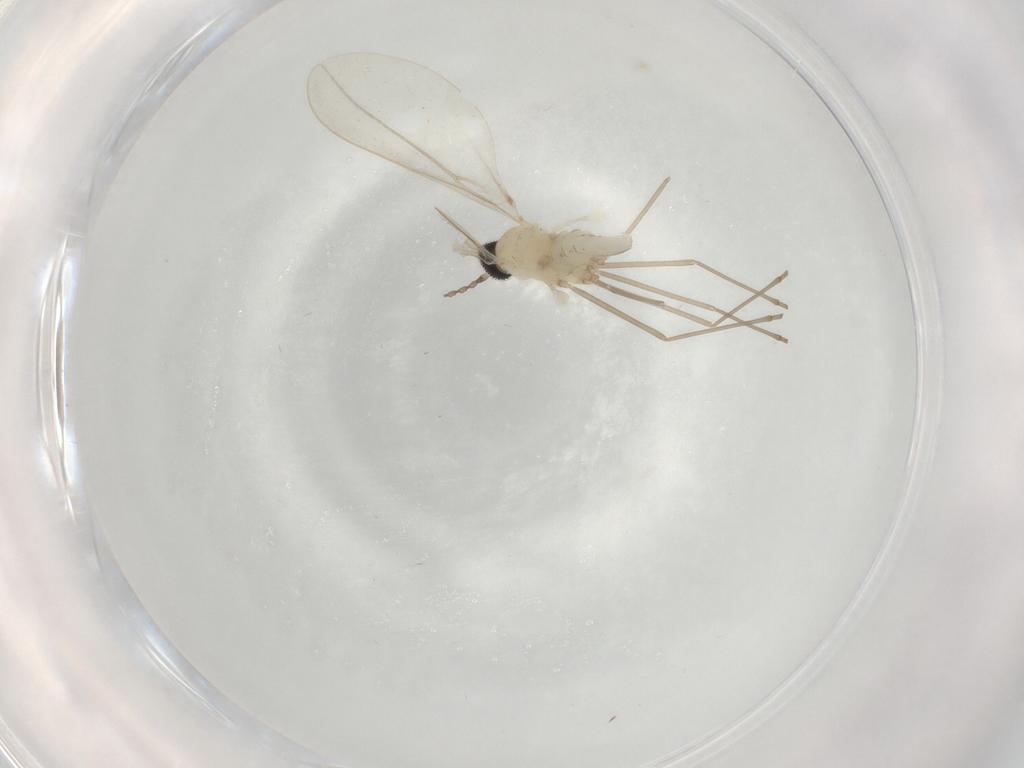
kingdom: Animalia
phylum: Arthropoda
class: Insecta
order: Diptera
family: Cecidomyiidae
